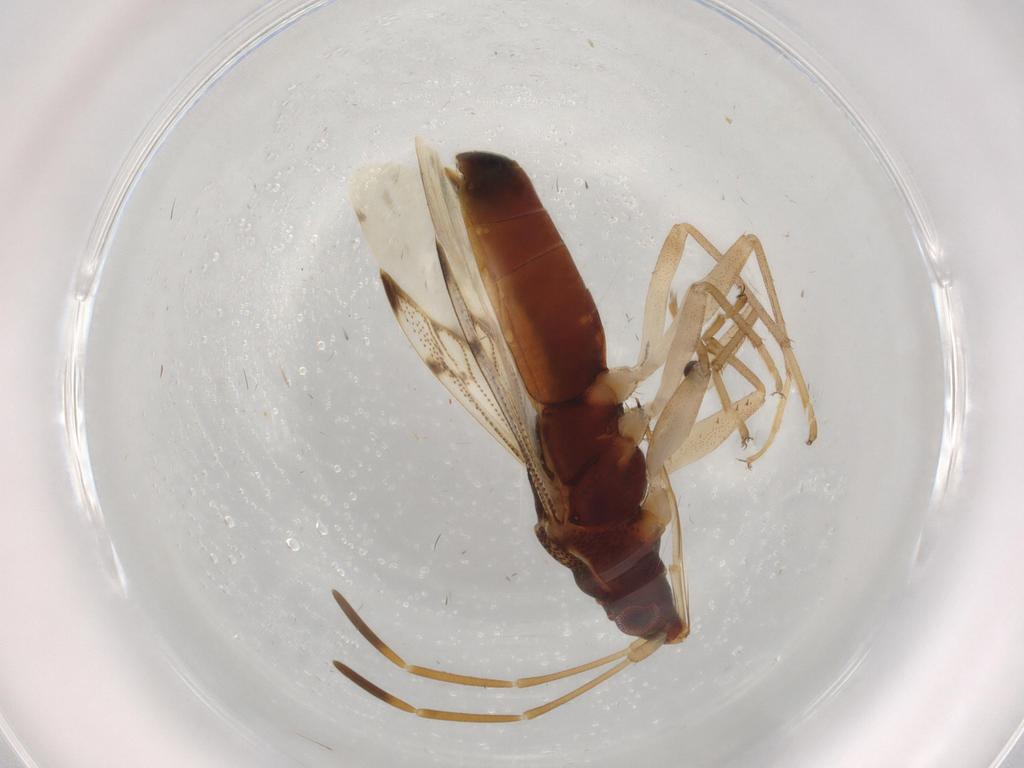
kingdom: Animalia
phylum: Arthropoda
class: Insecta
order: Hemiptera
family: Rhyparochromidae
